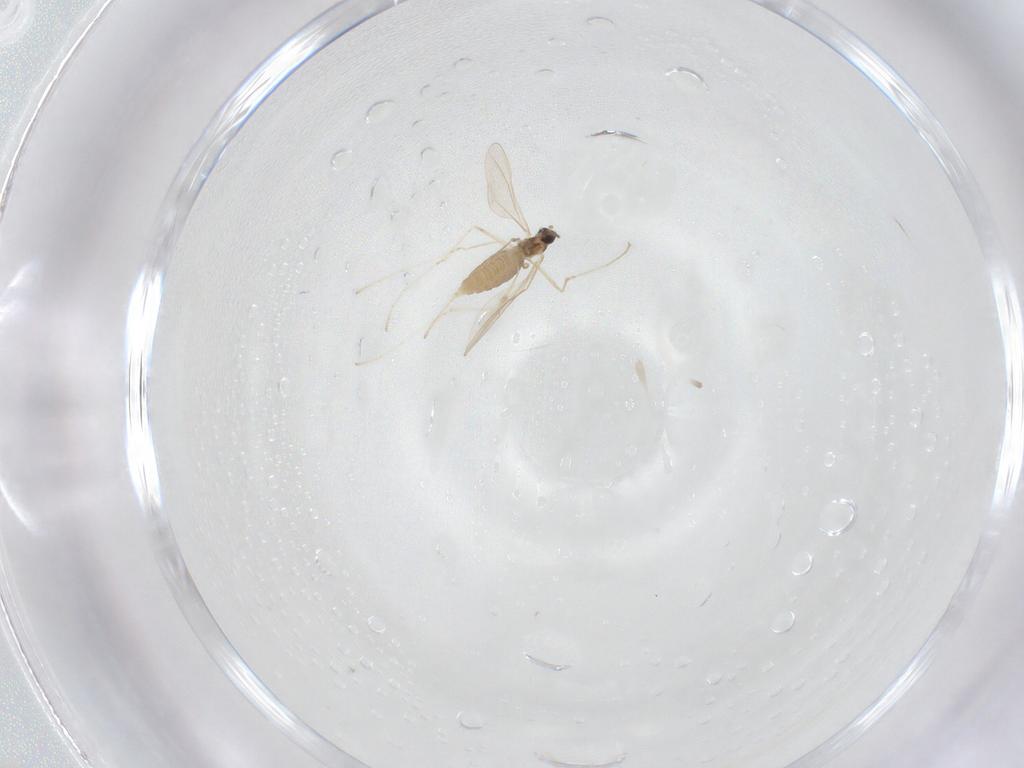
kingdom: Animalia
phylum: Arthropoda
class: Insecta
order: Diptera
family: Cecidomyiidae
